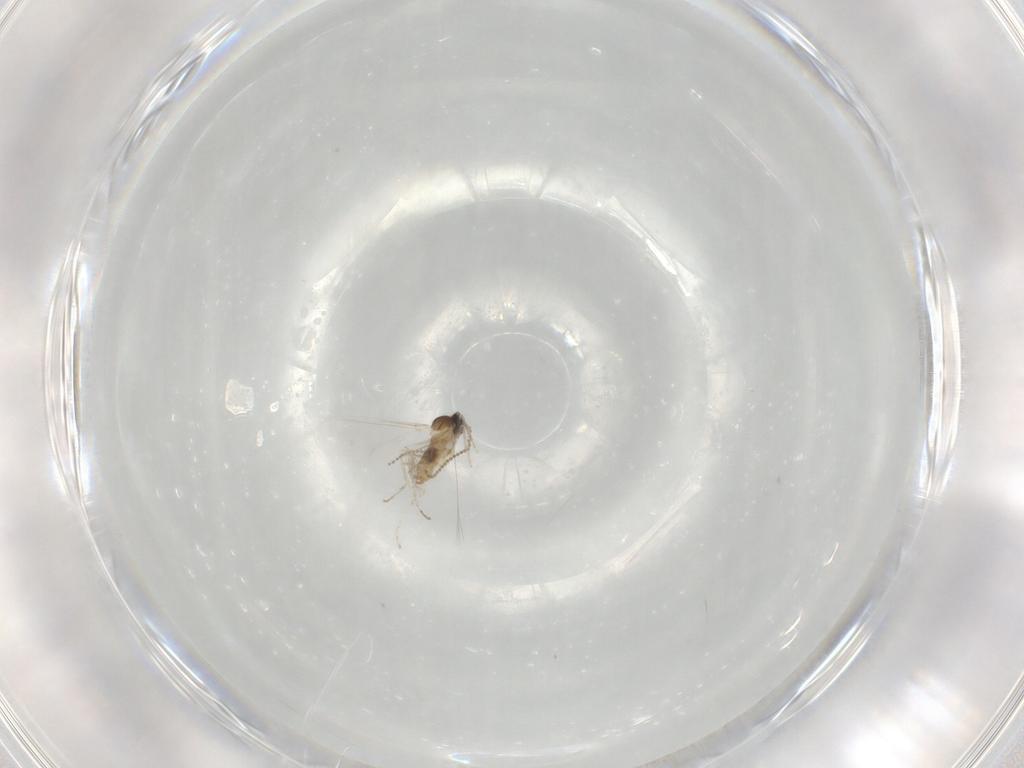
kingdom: Animalia
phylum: Arthropoda
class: Insecta
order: Diptera
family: Cecidomyiidae
